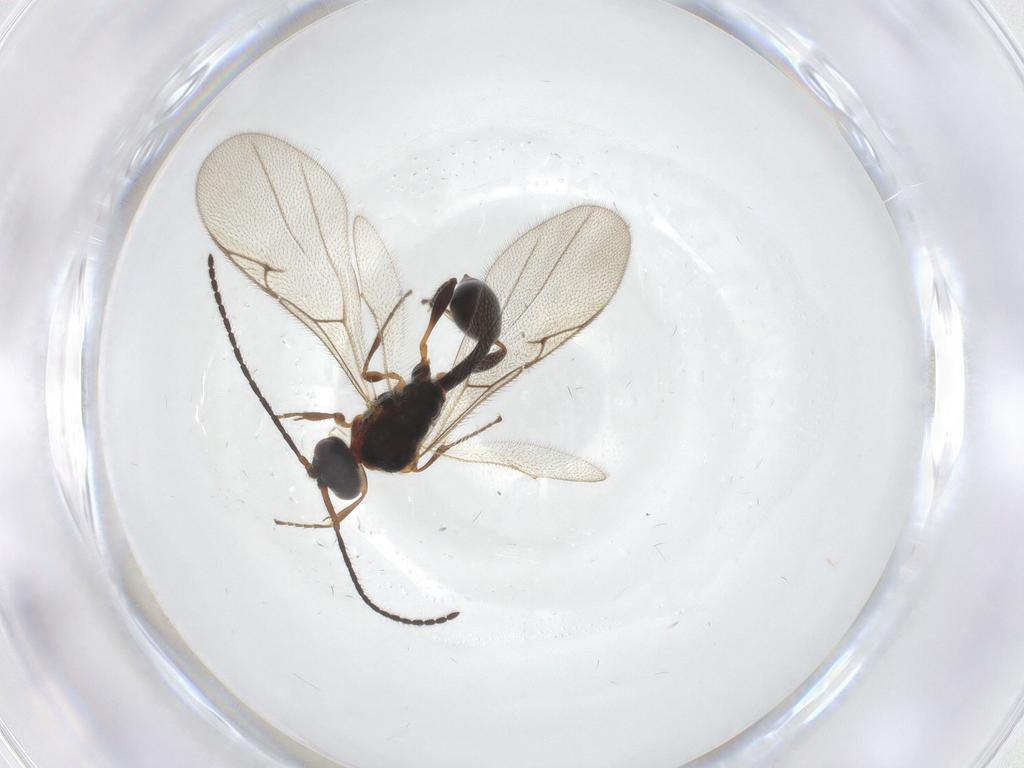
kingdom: Animalia
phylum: Arthropoda
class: Insecta
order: Hymenoptera
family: Diapriidae
